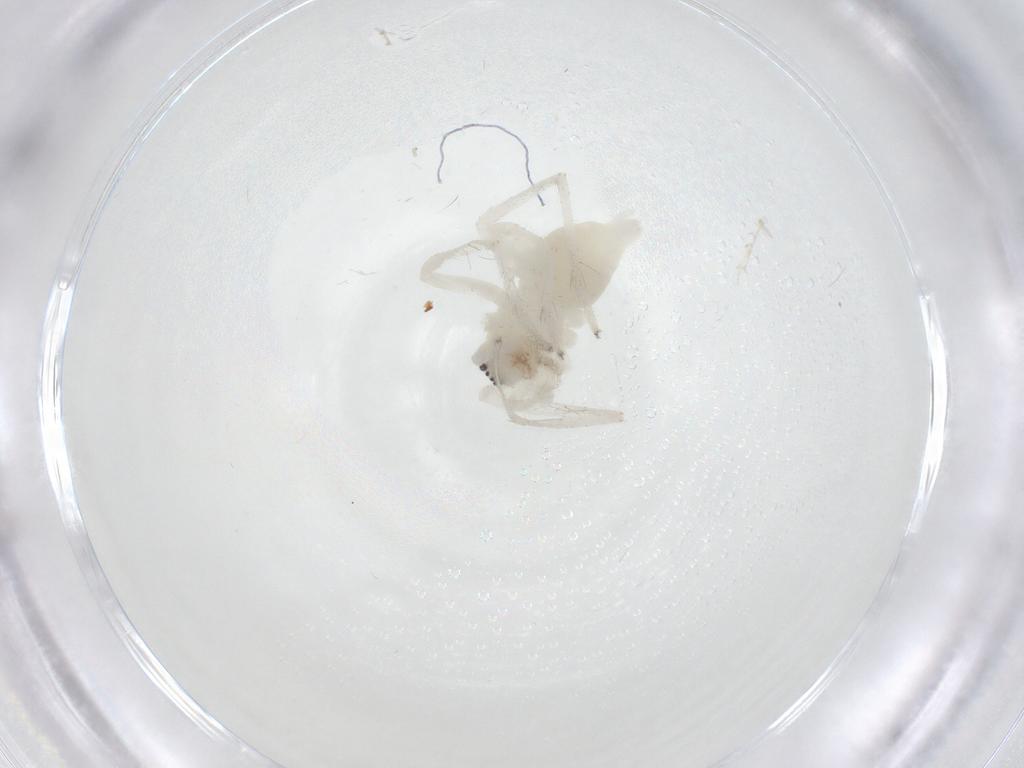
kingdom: Animalia
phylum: Arthropoda
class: Arachnida
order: Araneae
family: Anyphaenidae
